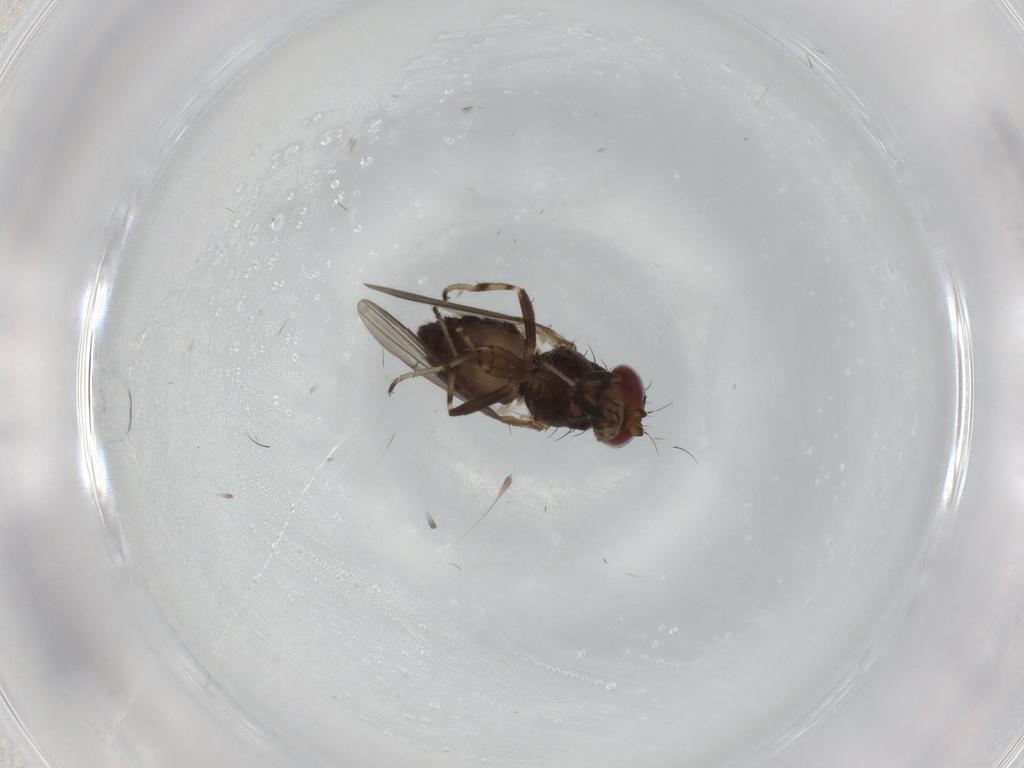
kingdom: Animalia
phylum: Arthropoda
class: Insecta
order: Diptera
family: Heleomyzidae
